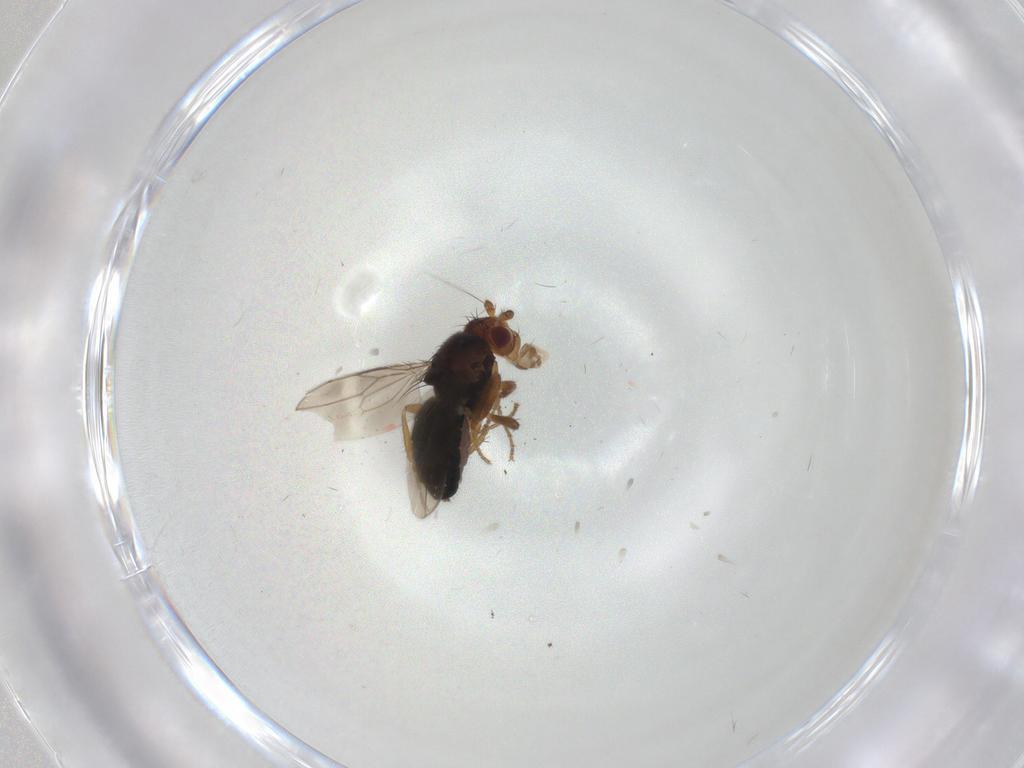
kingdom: Animalia
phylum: Arthropoda
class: Insecta
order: Diptera
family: Sphaeroceridae
